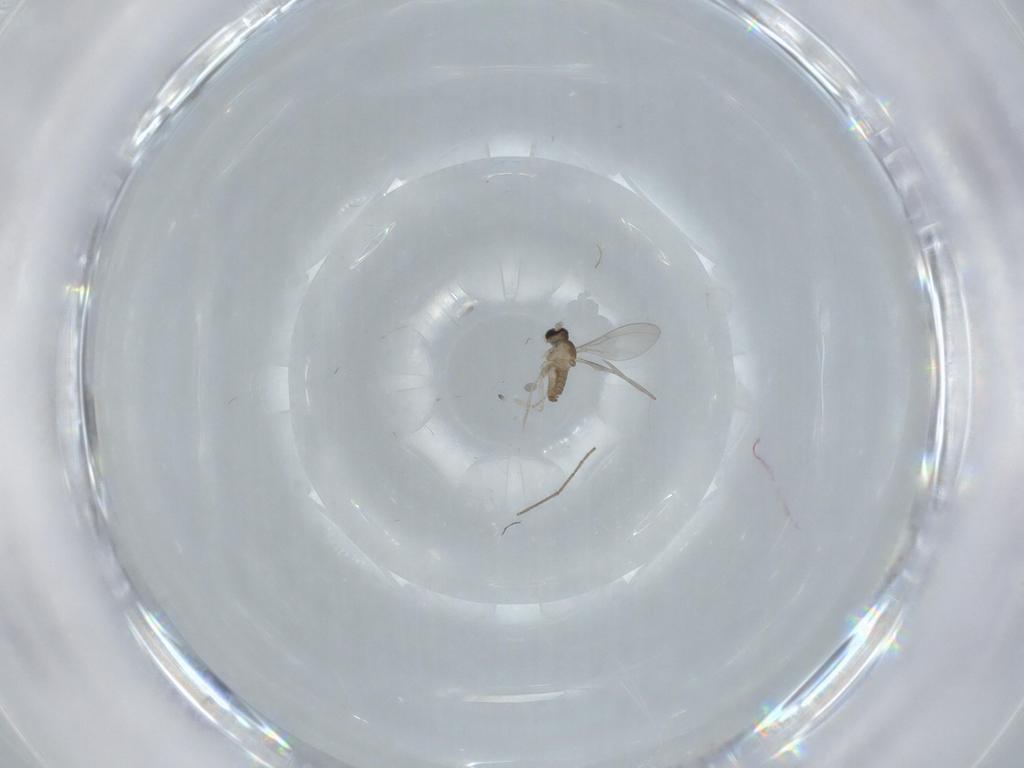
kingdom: Animalia
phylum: Arthropoda
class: Insecta
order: Diptera
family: Cecidomyiidae
